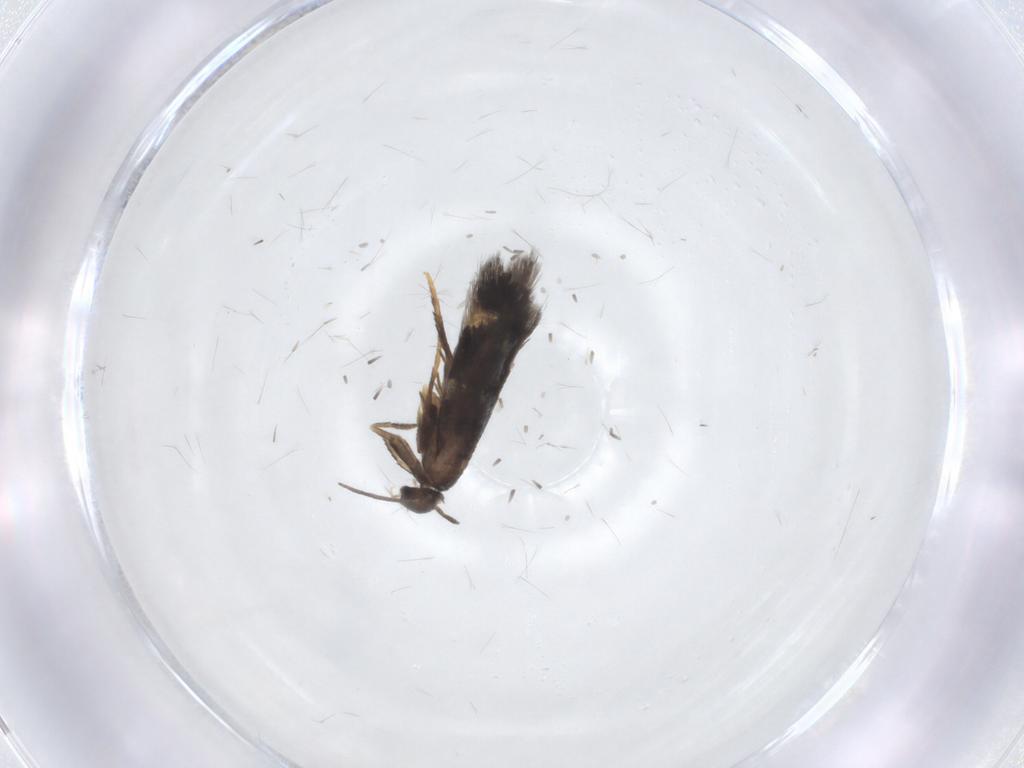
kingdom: Animalia
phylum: Arthropoda
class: Insecta
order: Lepidoptera
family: Heliozelidae
